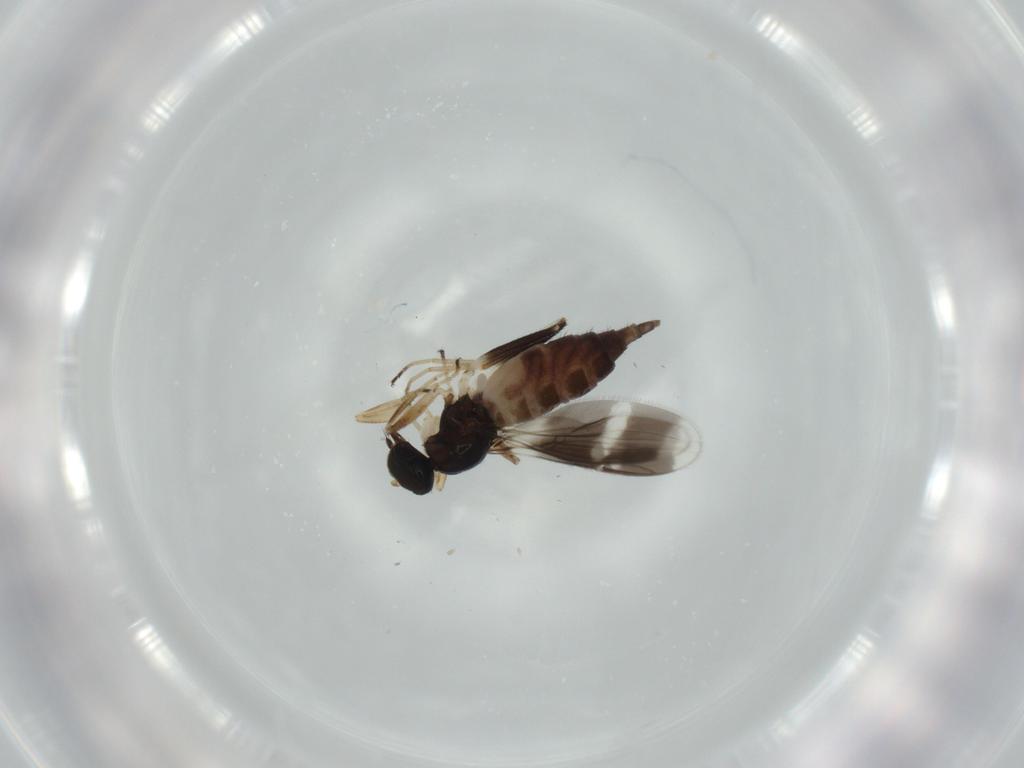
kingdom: Animalia
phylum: Arthropoda
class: Insecta
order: Diptera
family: Hybotidae
